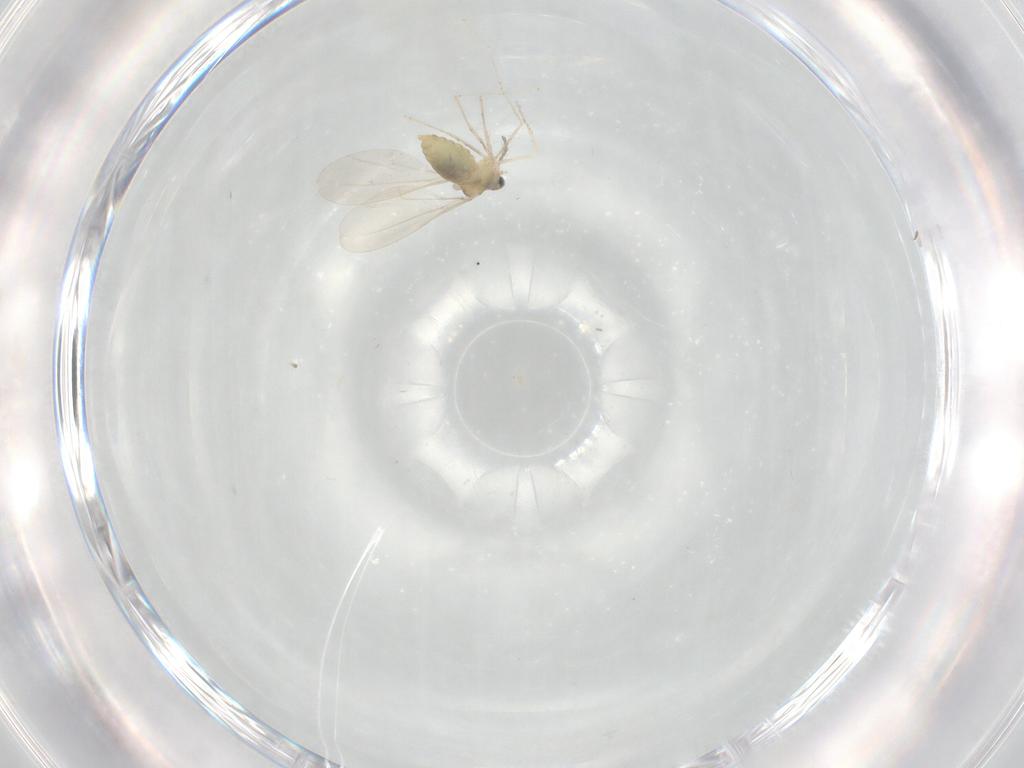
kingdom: Animalia
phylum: Arthropoda
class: Insecta
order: Diptera
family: Cecidomyiidae
